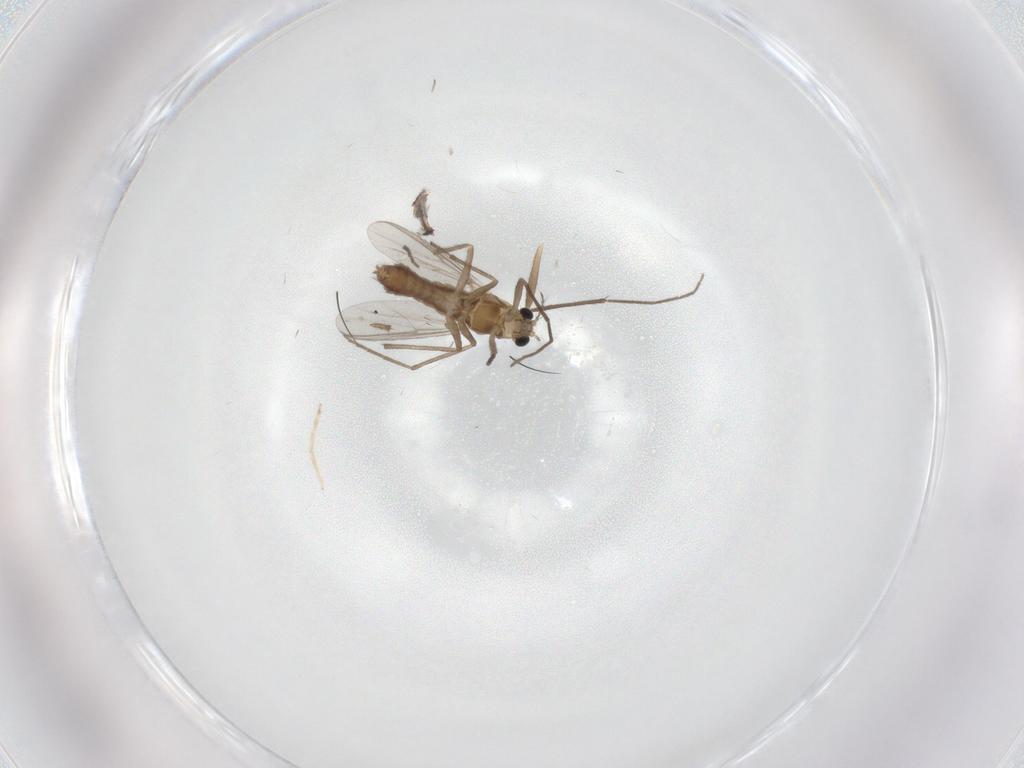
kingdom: Animalia
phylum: Arthropoda
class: Insecta
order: Diptera
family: Chironomidae
